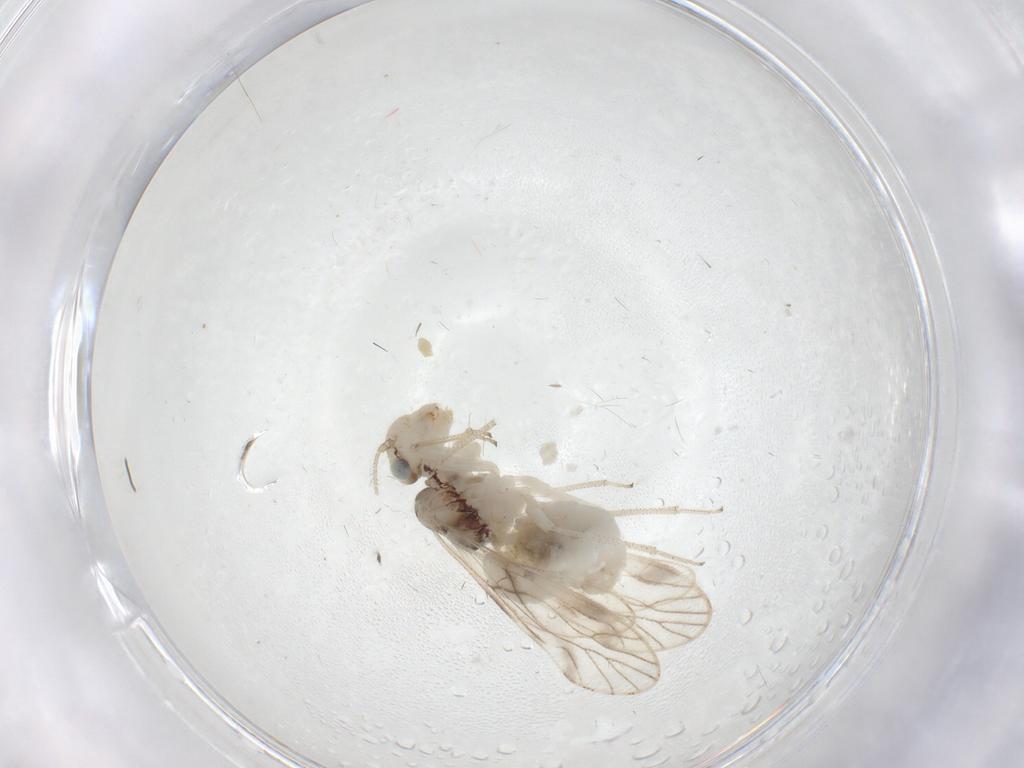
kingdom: Animalia
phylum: Arthropoda
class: Insecta
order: Psocodea
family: Caeciliusidae
